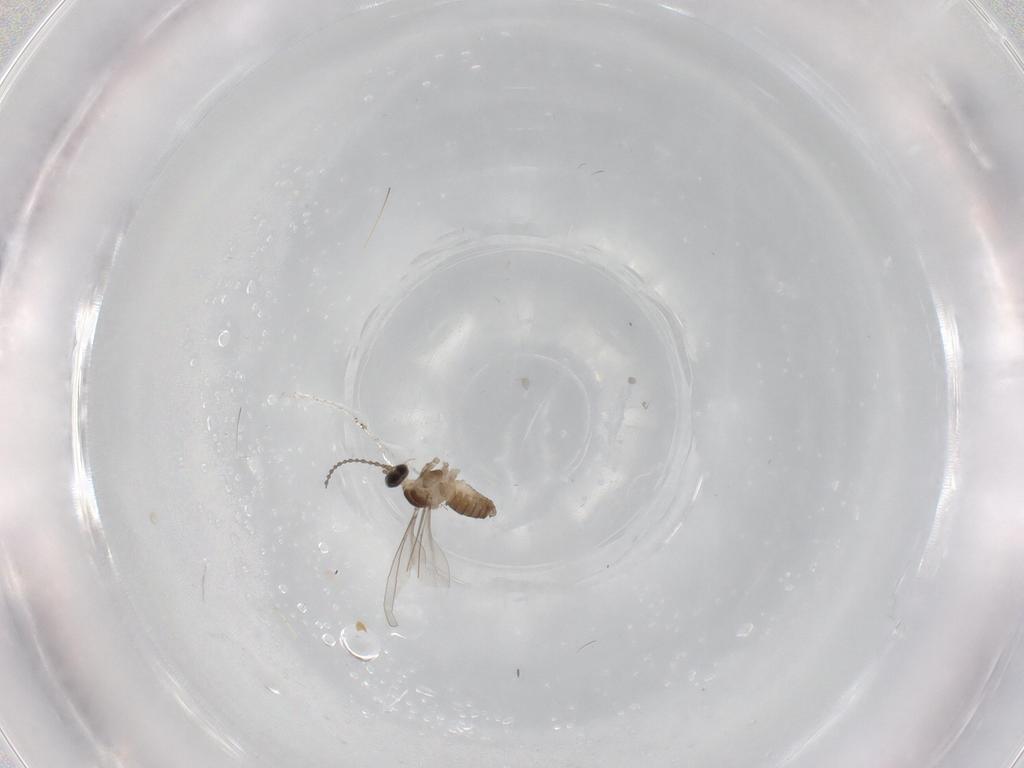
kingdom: Animalia
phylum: Arthropoda
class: Insecta
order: Diptera
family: Cecidomyiidae
